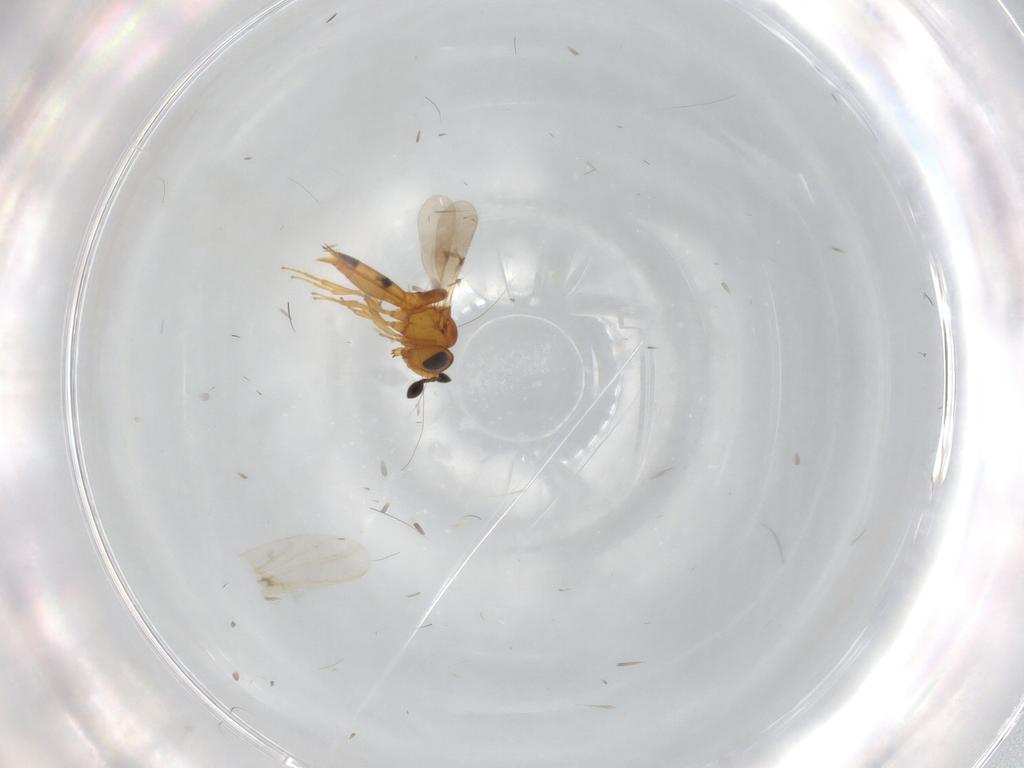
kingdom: Animalia
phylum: Arthropoda
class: Insecta
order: Hymenoptera
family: Scelionidae
